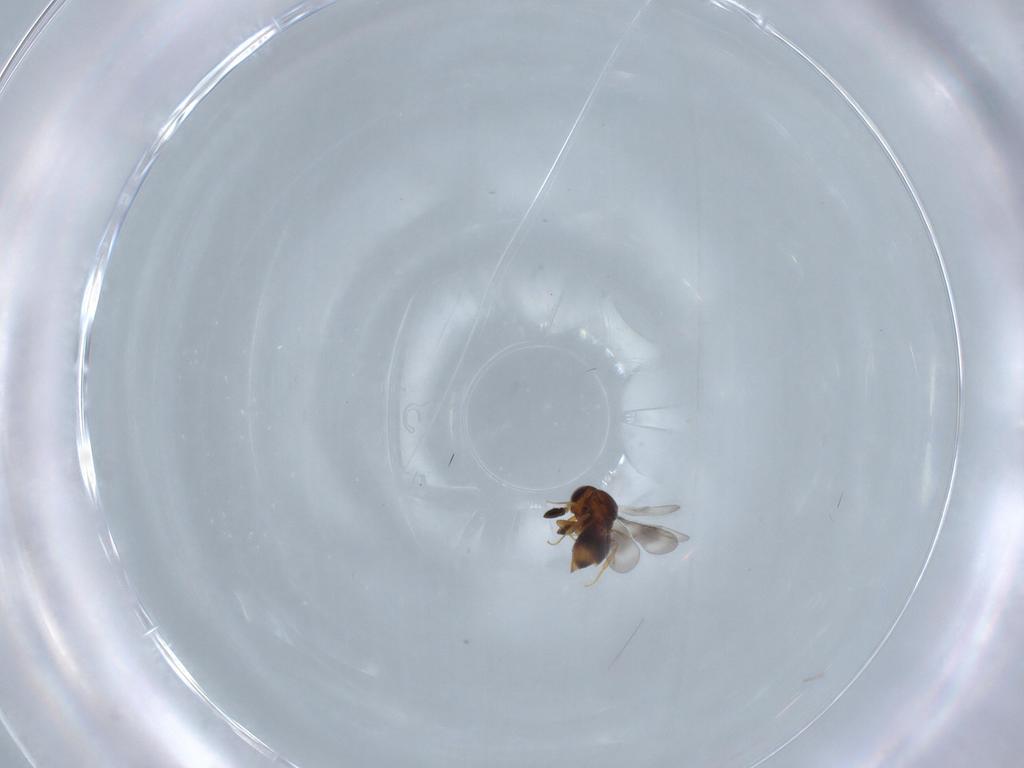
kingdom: Animalia
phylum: Arthropoda
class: Insecta
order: Hymenoptera
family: Ceraphronidae
